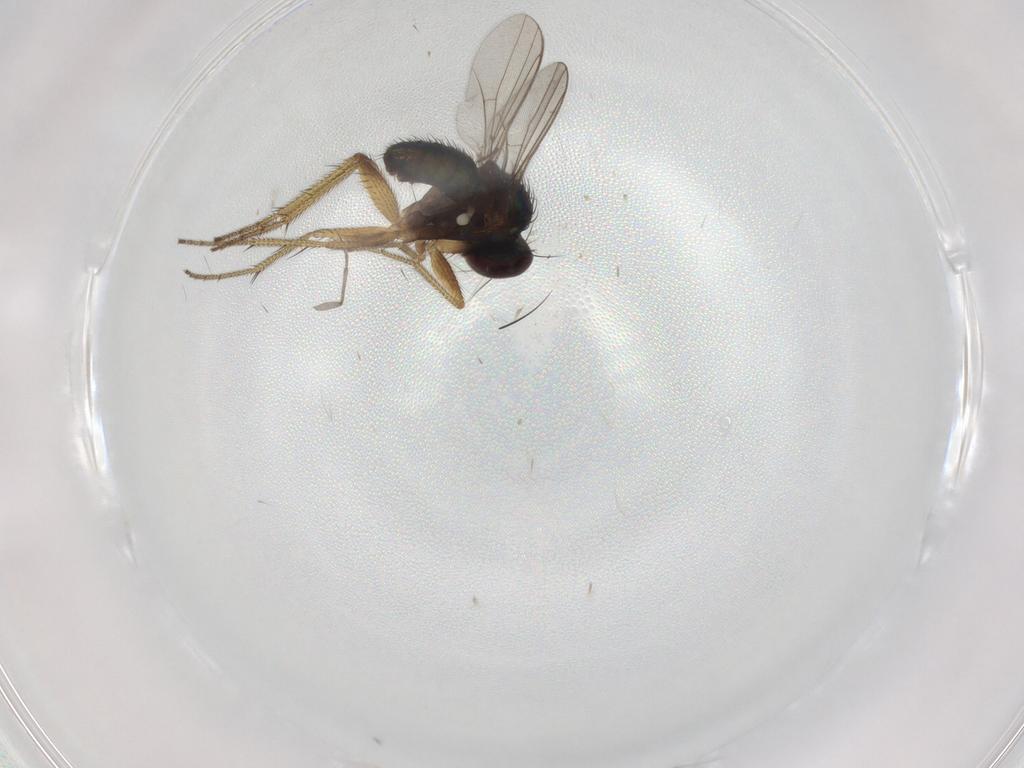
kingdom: Animalia
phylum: Arthropoda
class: Insecta
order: Diptera
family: Sciaridae
